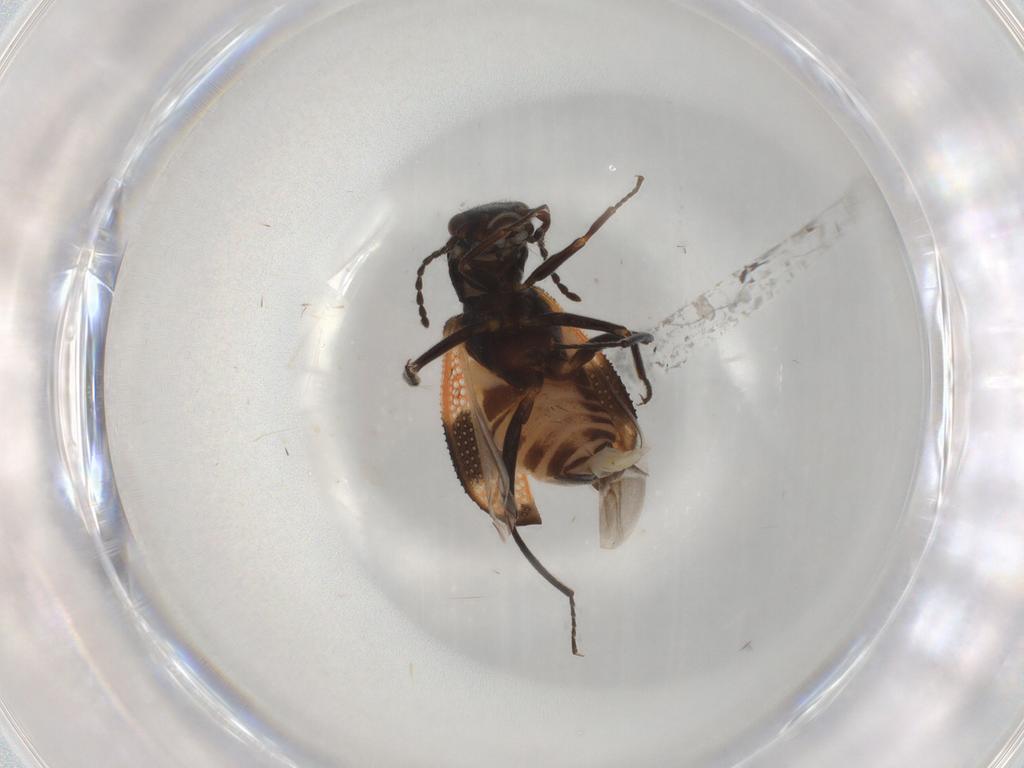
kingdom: Animalia
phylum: Arthropoda
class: Insecta
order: Coleoptera
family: Melyridae
